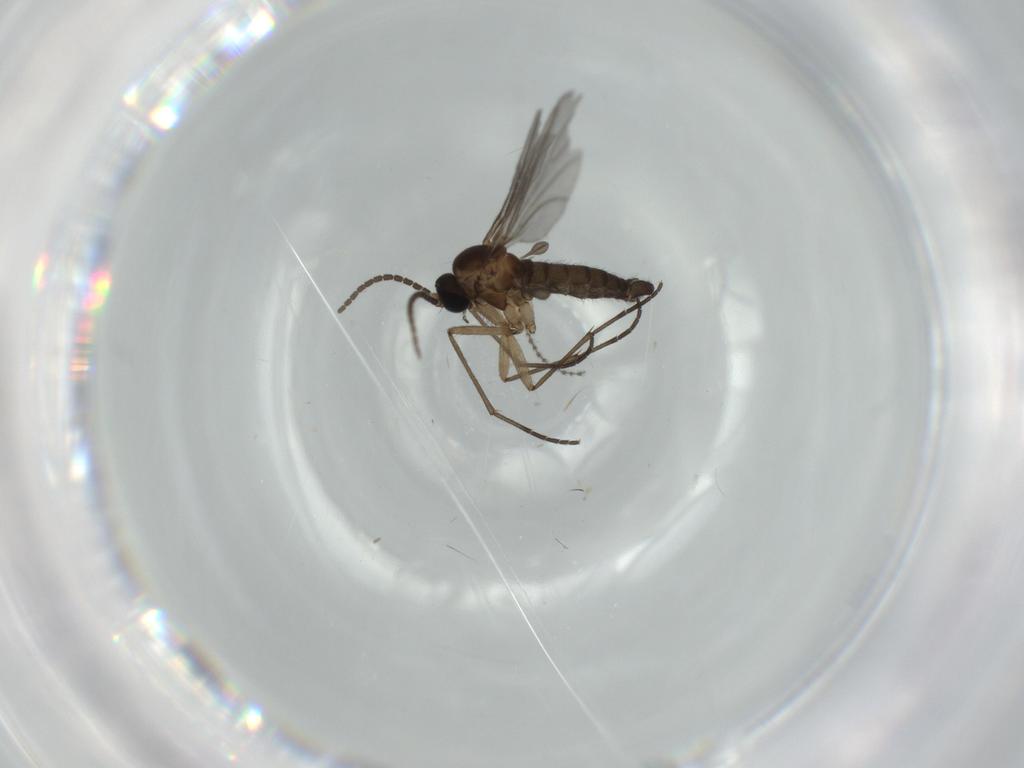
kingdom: Animalia
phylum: Arthropoda
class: Insecta
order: Diptera
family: Sciaridae
